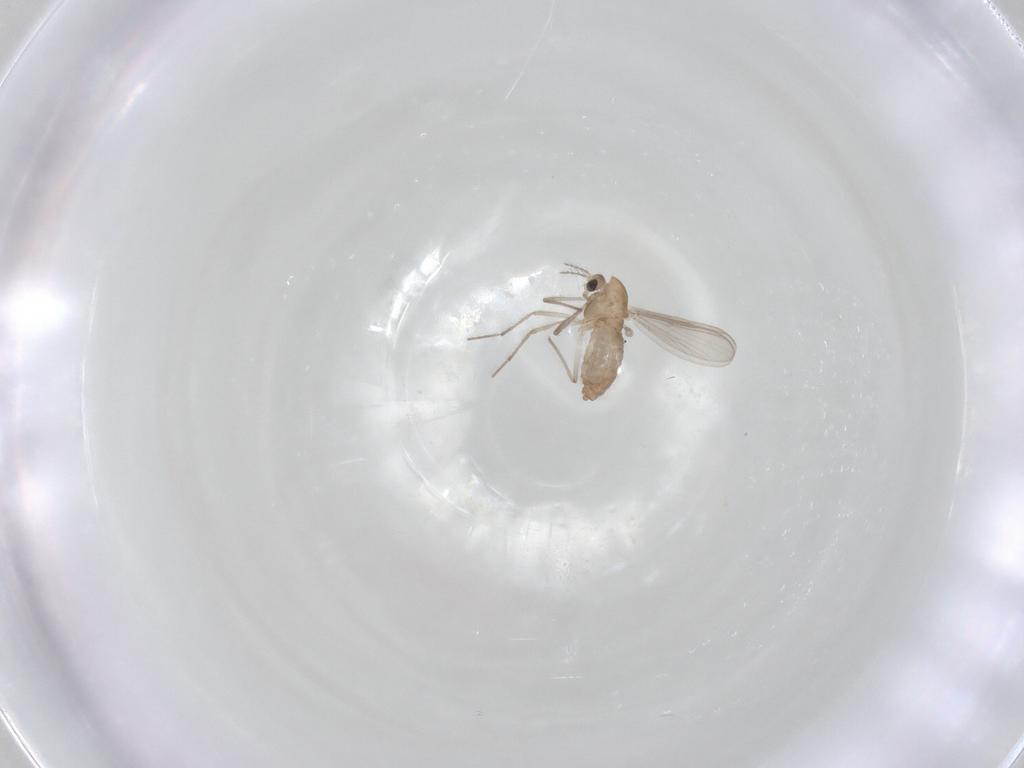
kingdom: Animalia
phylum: Arthropoda
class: Insecta
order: Diptera
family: Chironomidae
